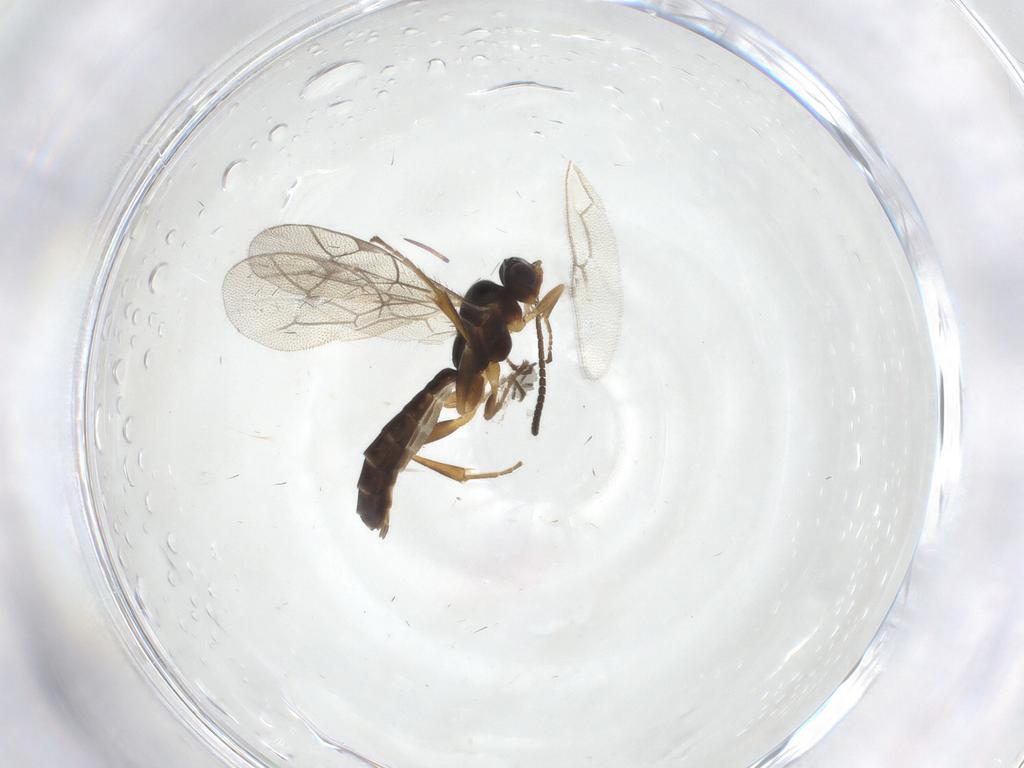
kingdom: Animalia
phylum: Arthropoda
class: Insecta
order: Hymenoptera
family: Ichneumonidae
